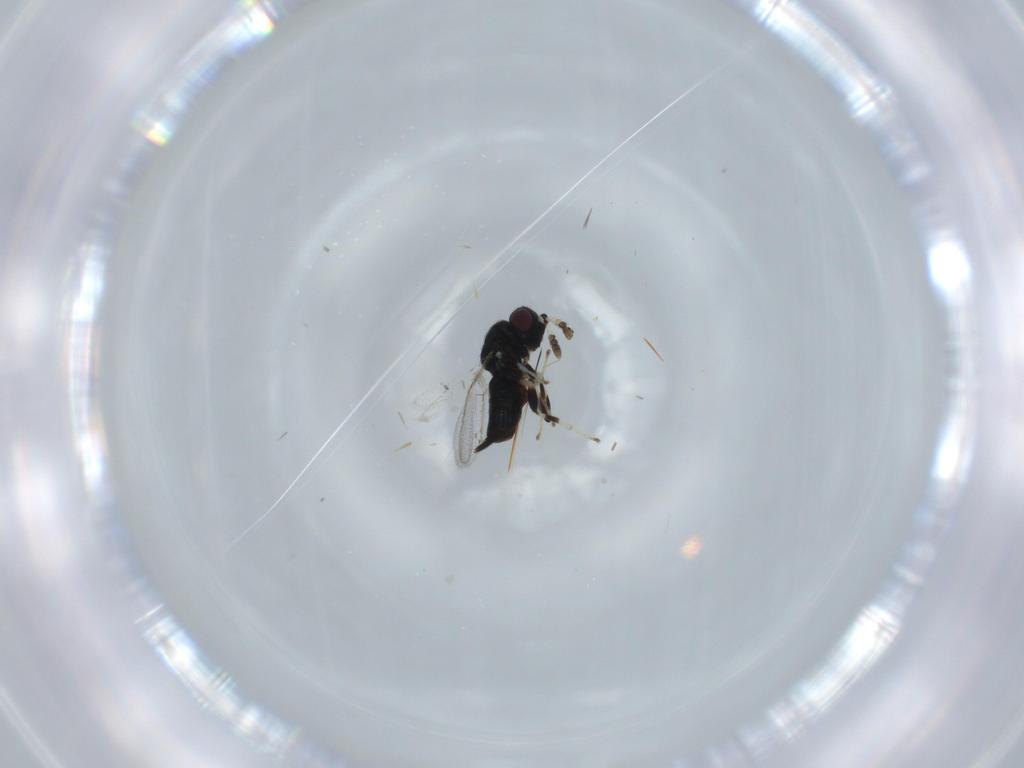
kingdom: Animalia
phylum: Arthropoda
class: Insecta
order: Hymenoptera
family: Pirenidae
